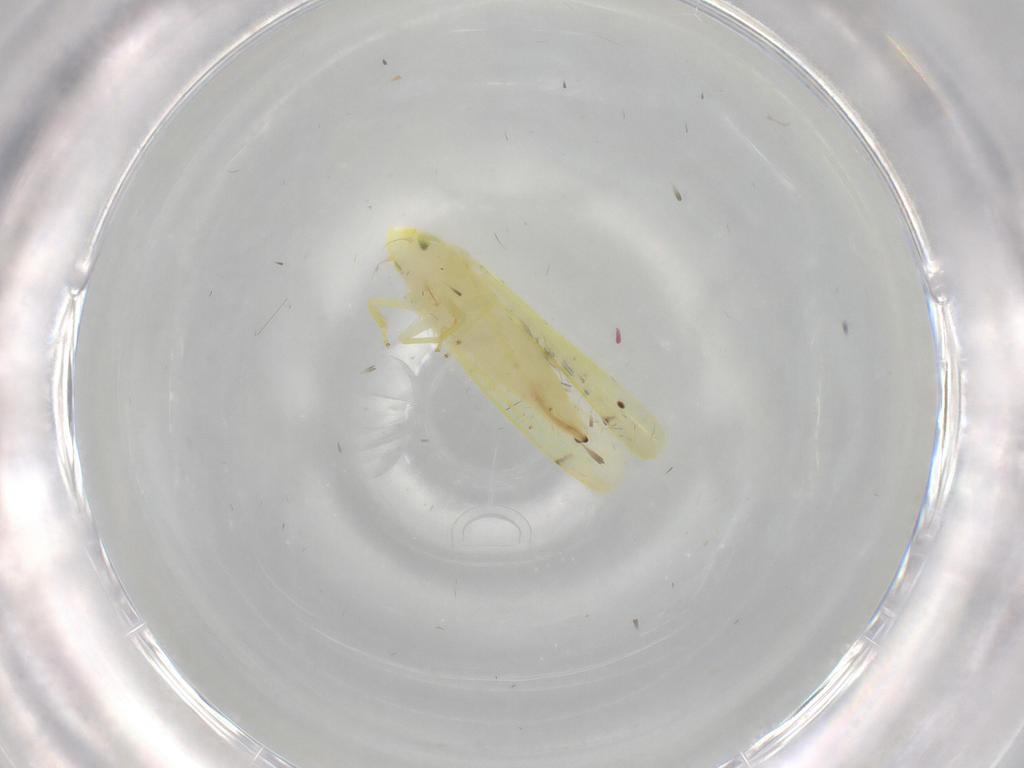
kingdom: Animalia
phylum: Arthropoda
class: Insecta
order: Hemiptera
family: Cicadellidae
